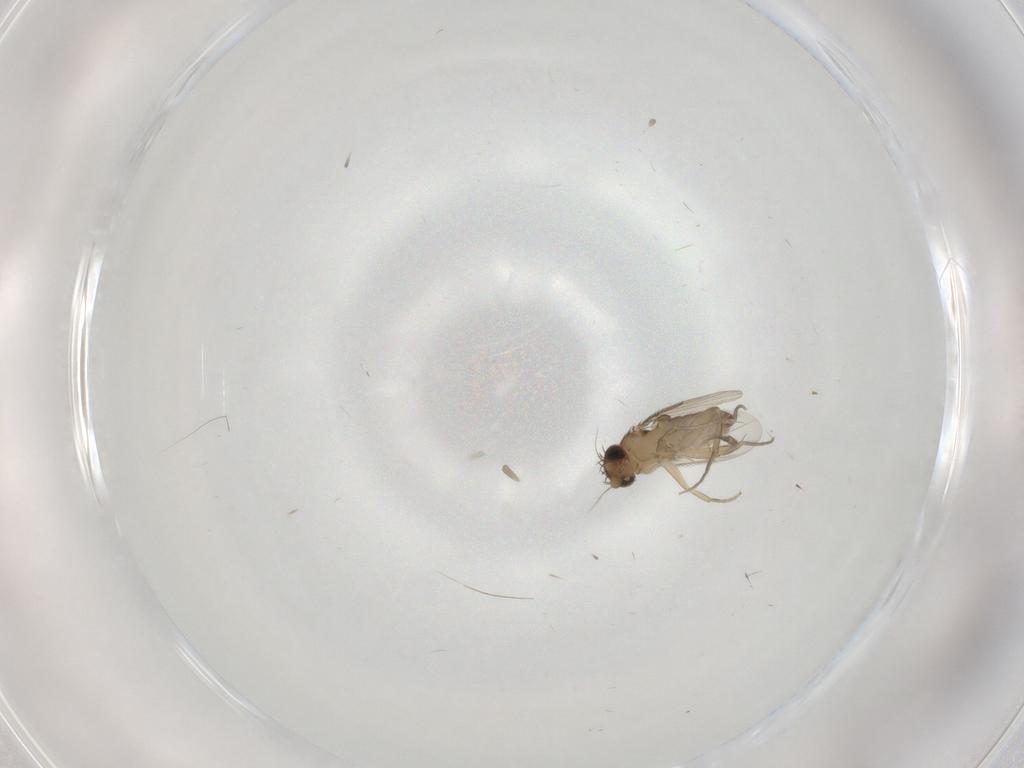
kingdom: Animalia
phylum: Arthropoda
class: Insecta
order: Diptera
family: Phoridae
